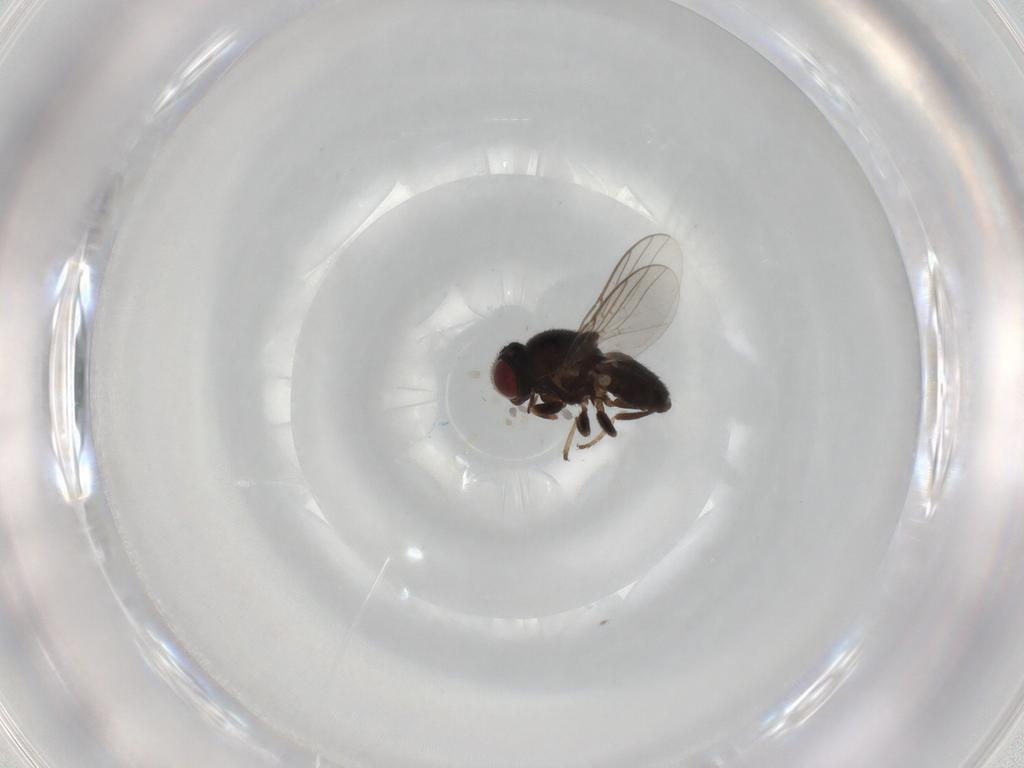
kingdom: Animalia
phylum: Arthropoda
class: Insecta
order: Diptera
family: Chloropidae
